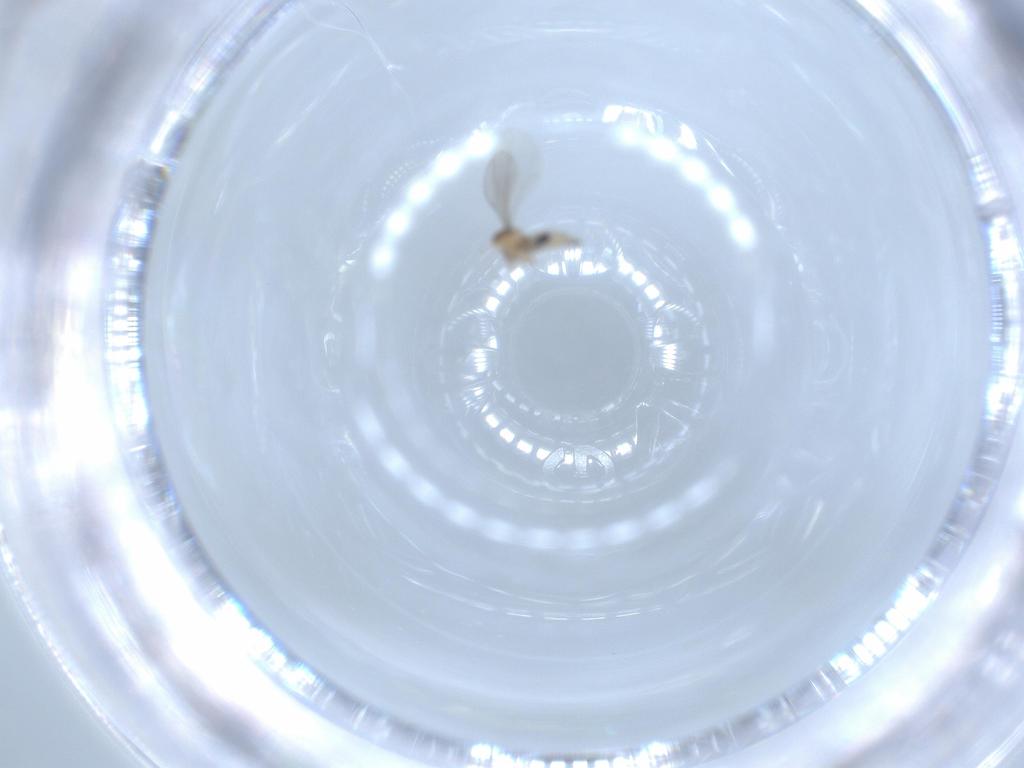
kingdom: Animalia
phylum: Arthropoda
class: Insecta
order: Diptera
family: Cecidomyiidae
